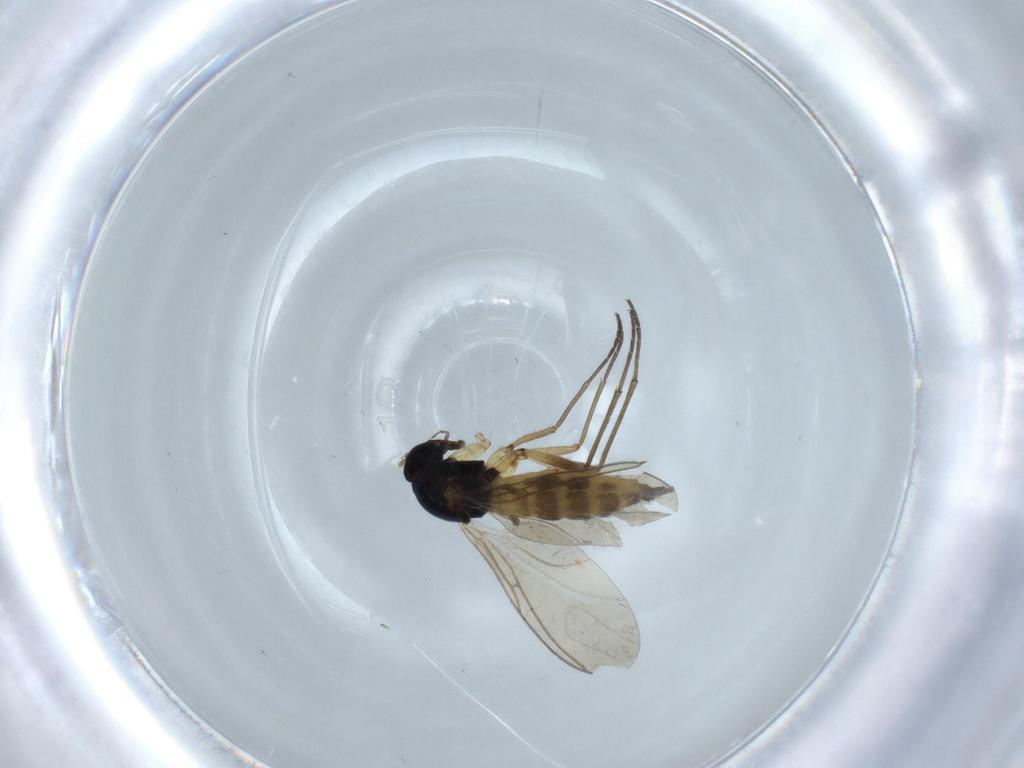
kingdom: Animalia
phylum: Arthropoda
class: Insecta
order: Diptera
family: Sciaridae
